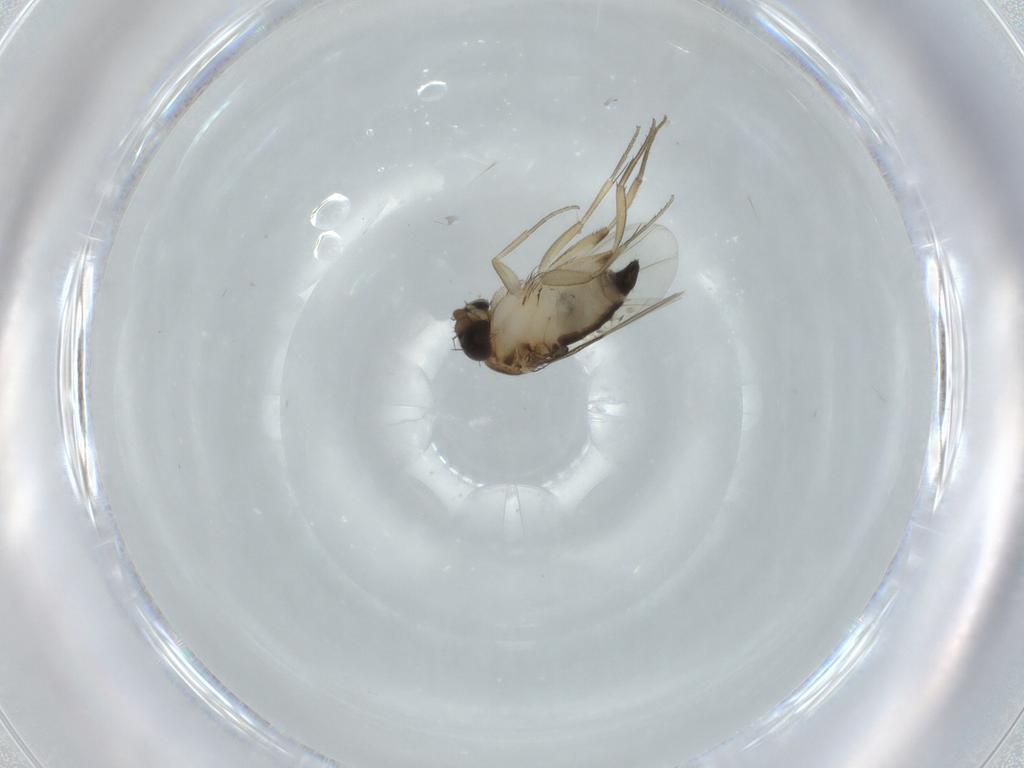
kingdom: Animalia
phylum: Arthropoda
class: Insecta
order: Diptera
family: Phoridae
